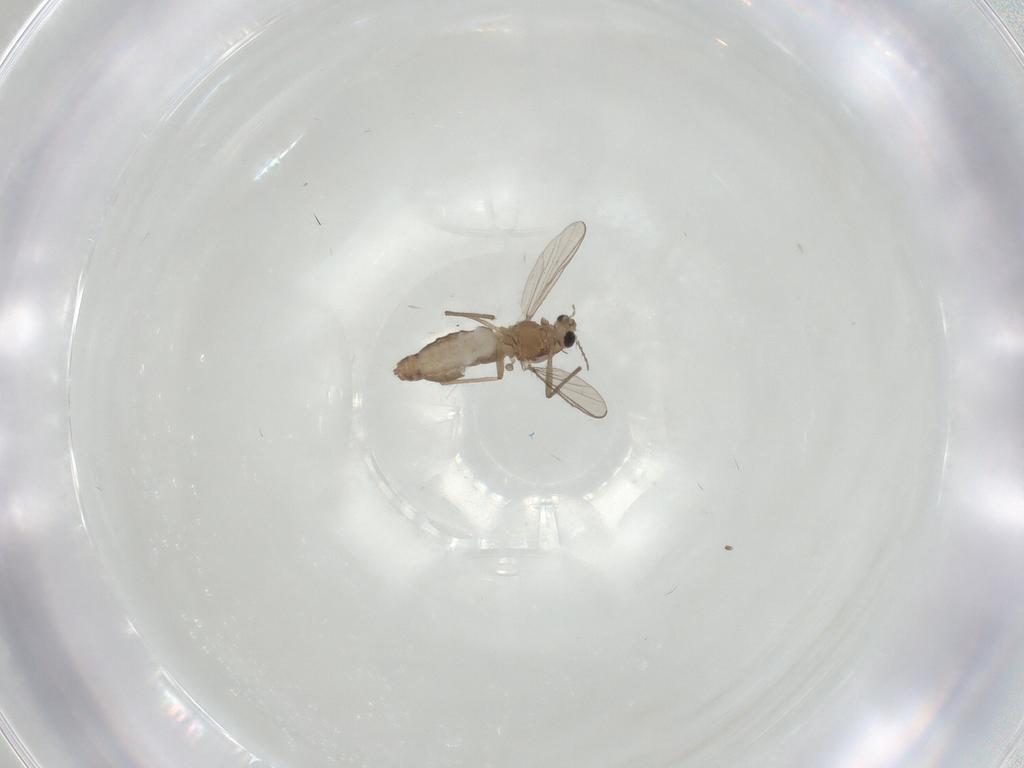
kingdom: Animalia
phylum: Arthropoda
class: Insecta
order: Diptera
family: Chironomidae
